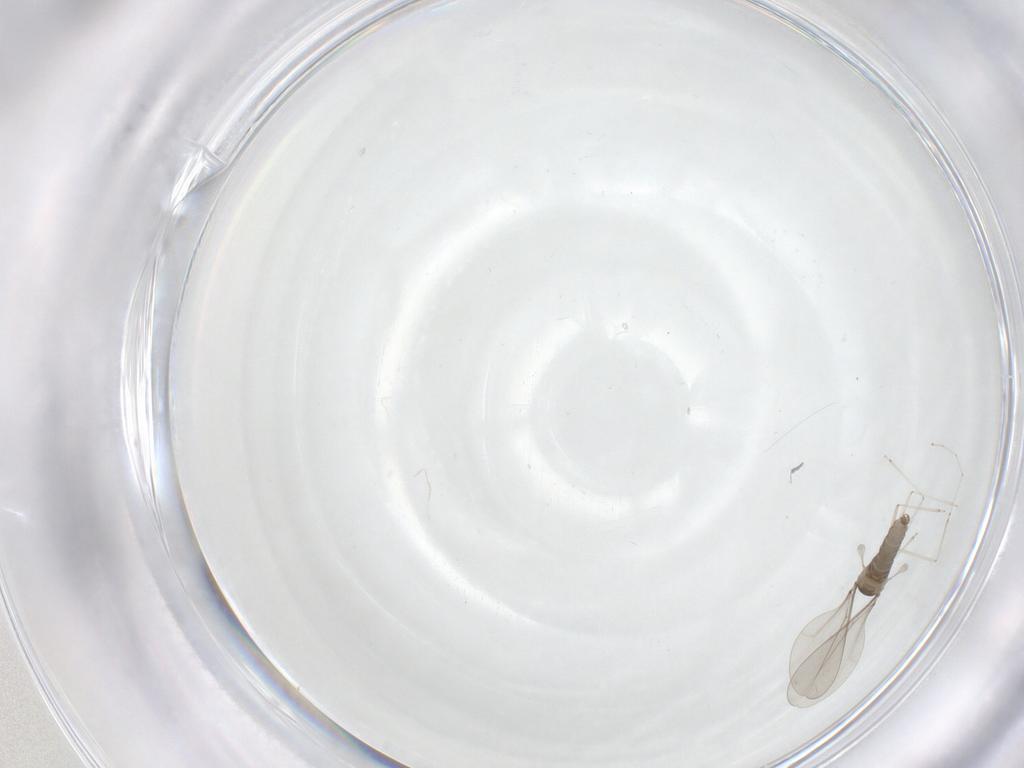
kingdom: Animalia
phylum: Arthropoda
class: Insecta
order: Diptera
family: Cecidomyiidae
